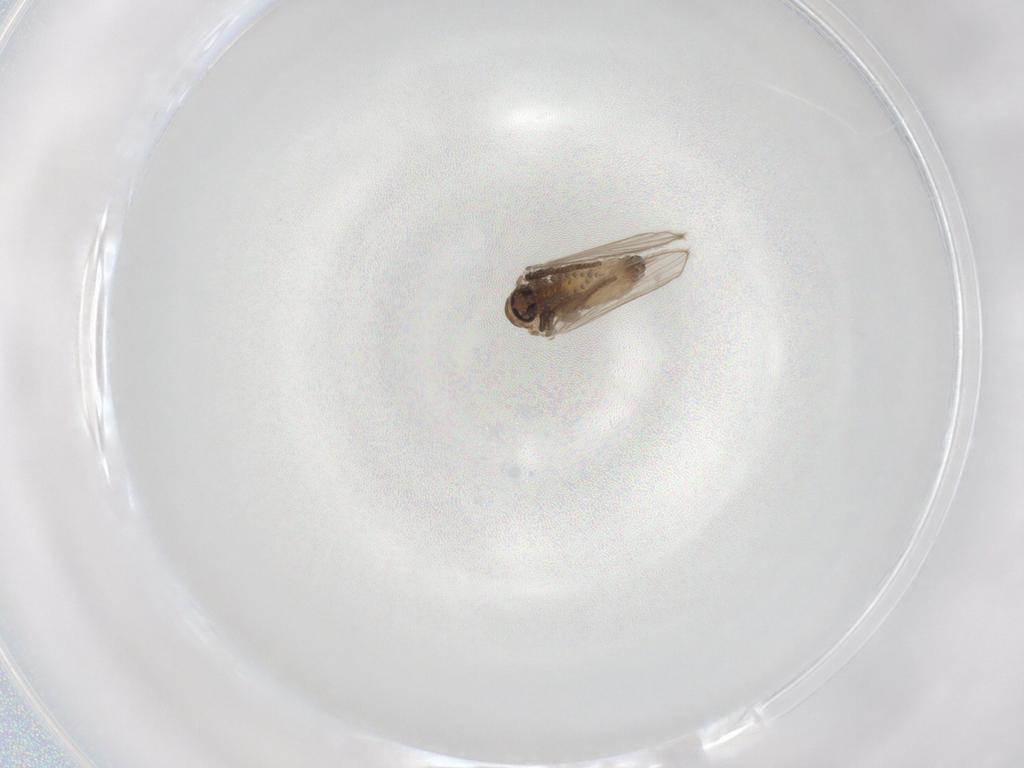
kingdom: Animalia
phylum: Arthropoda
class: Insecta
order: Diptera
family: Psychodidae
